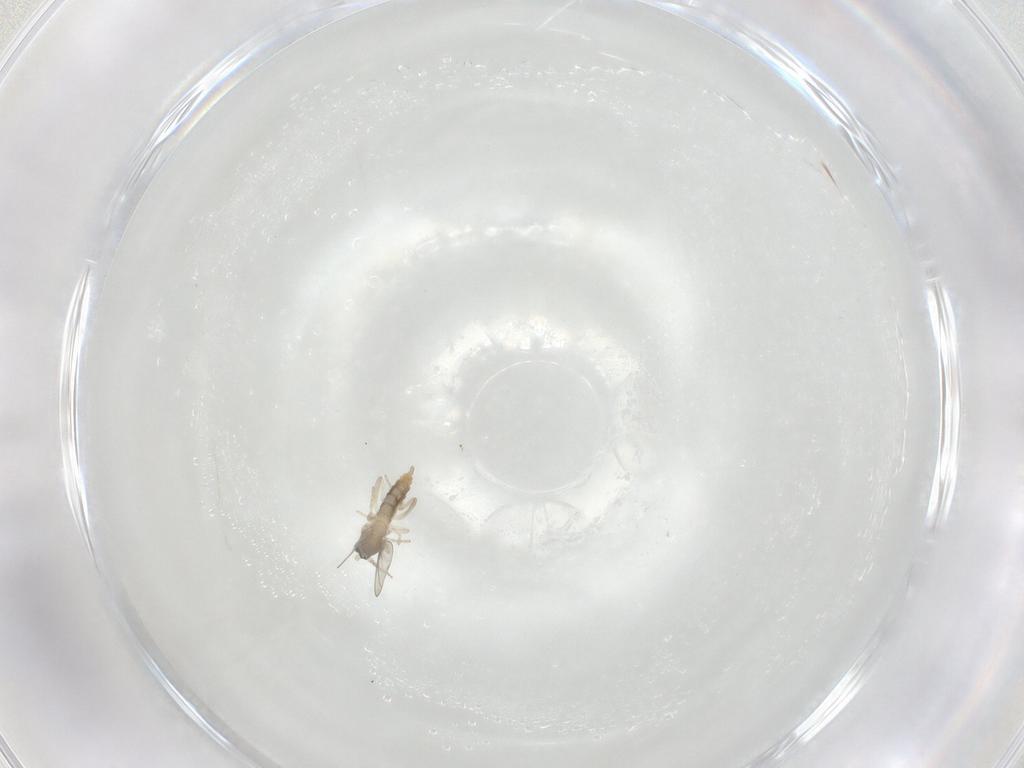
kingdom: Animalia
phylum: Arthropoda
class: Insecta
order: Diptera
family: Cecidomyiidae
